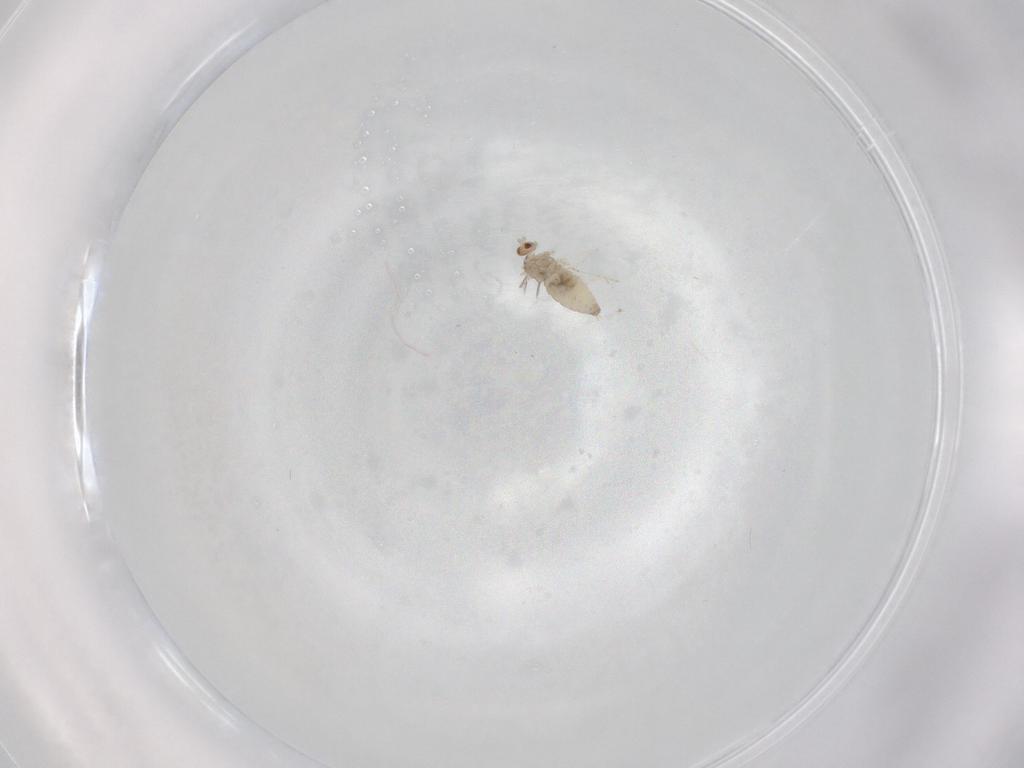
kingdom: Animalia
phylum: Arthropoda
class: Insecta
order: Diptera
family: Cecidomyiidae
